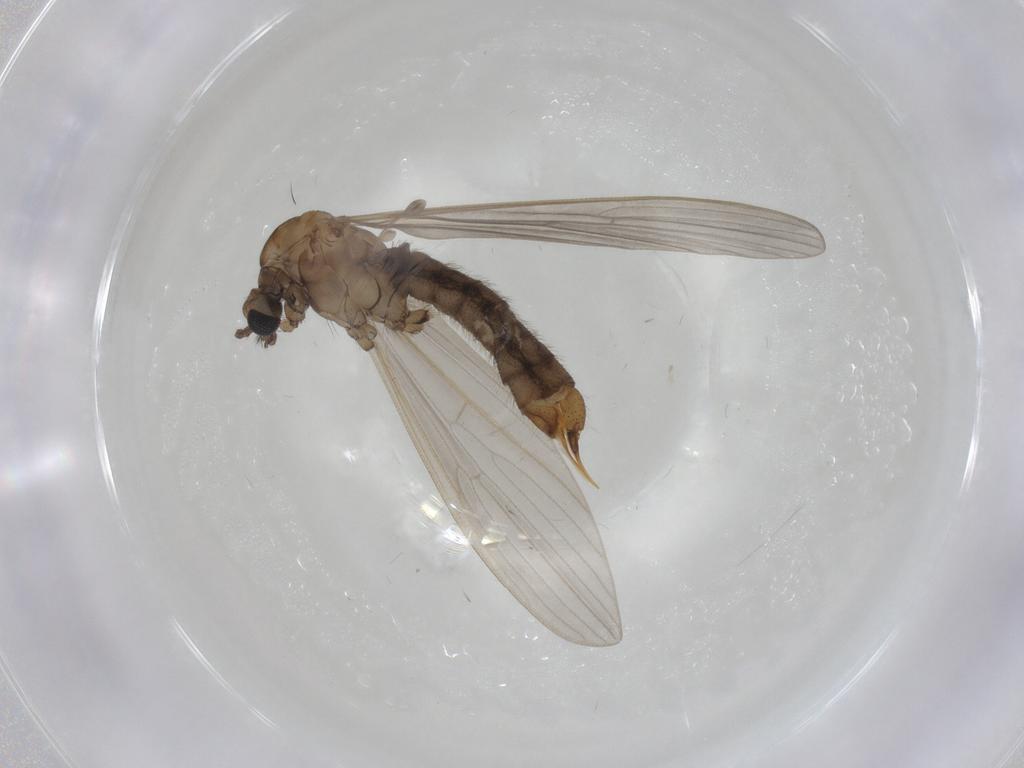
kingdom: Animalia
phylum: Arthropoda
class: Insecta
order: Diptera
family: Limoniidae
